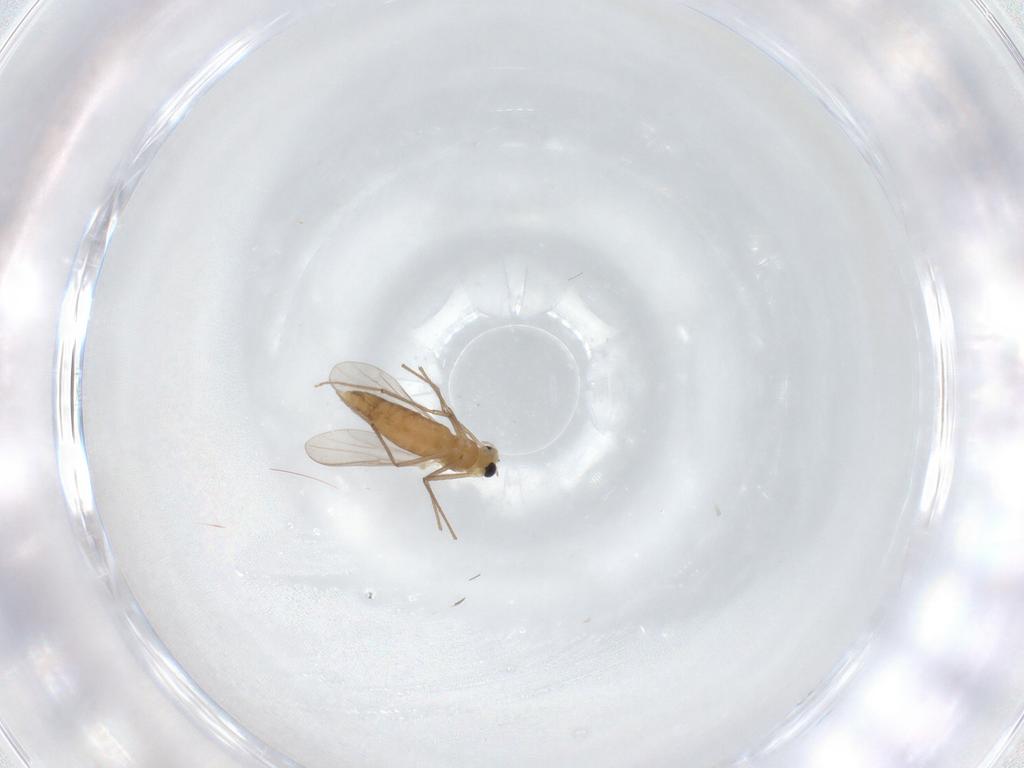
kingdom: Animalia
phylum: Arthropoda
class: Insecta
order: Diptera
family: Chironomidae
